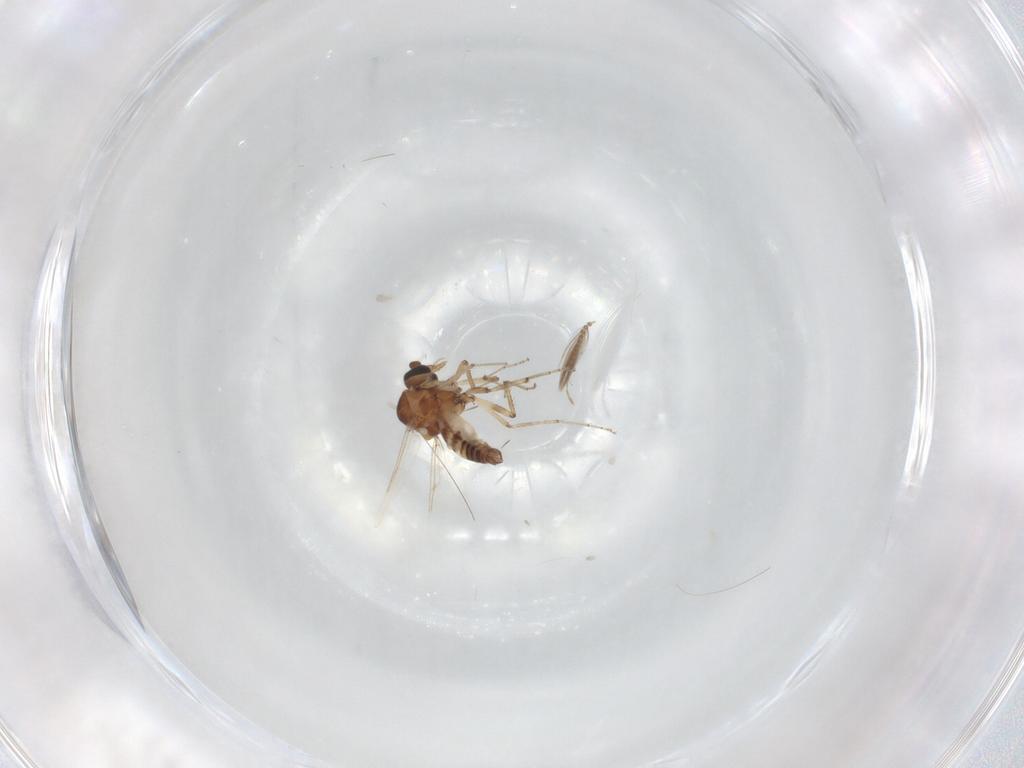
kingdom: Animalia
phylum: Arthropoda
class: Insecta
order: Diptera
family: Ceratopogonidae
